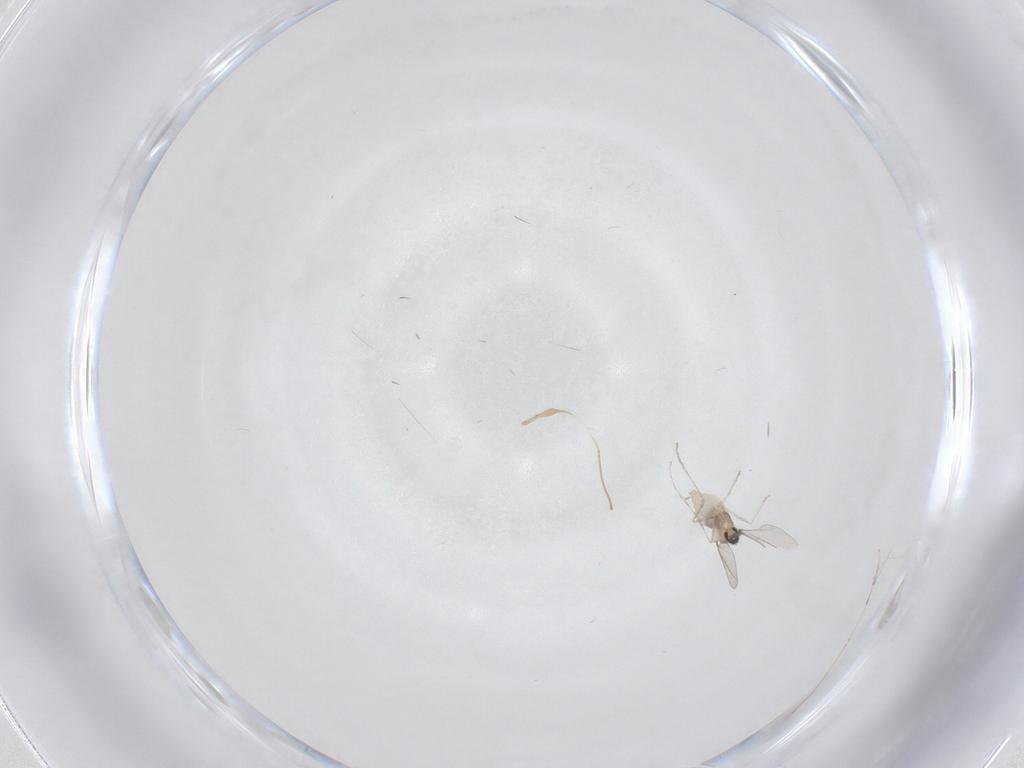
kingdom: Animalia
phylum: Arthropoda
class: Insecta
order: Diptera
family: Cecidomyiidae
